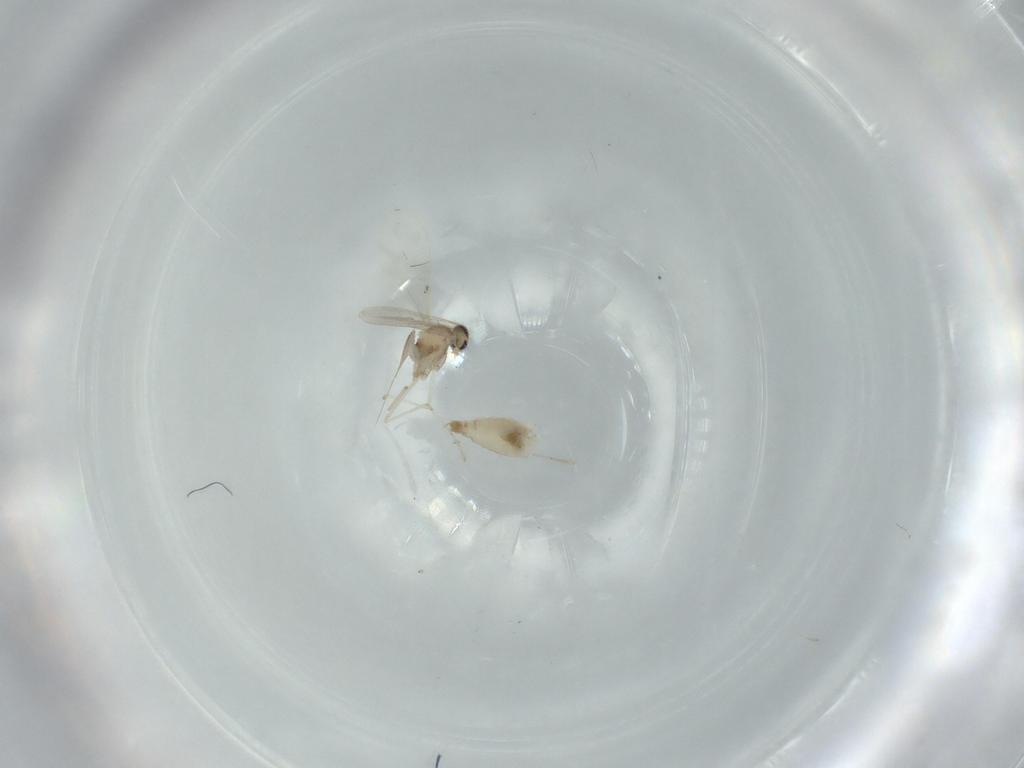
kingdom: Animalia
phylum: Arthropoda
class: Insecta
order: Diptera
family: Cecidomyiidae
